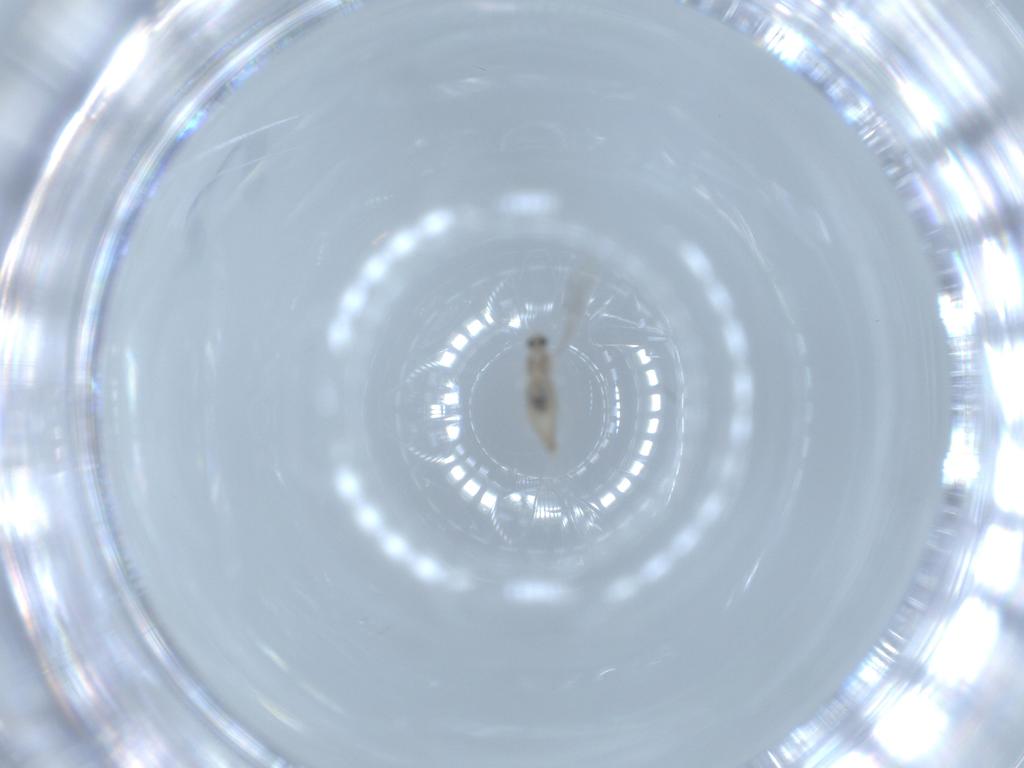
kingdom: Animalia
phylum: Arthropoda
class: Insecta
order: Diptera
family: Cecidomyiidae
